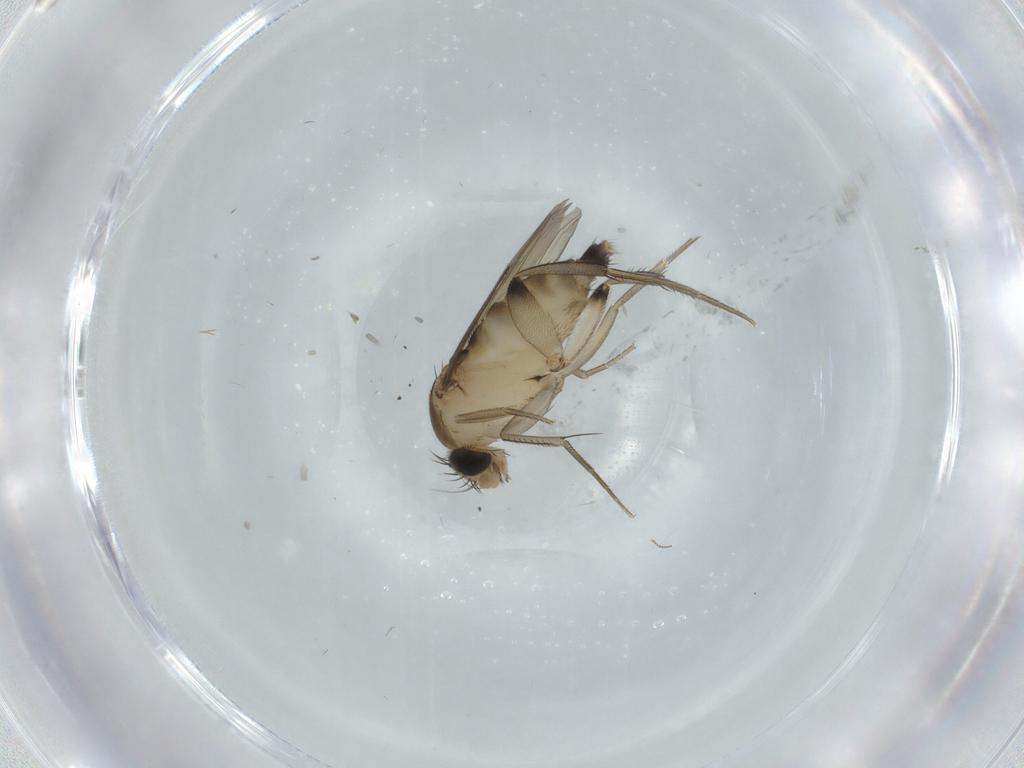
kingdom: Animalia
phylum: Arthropoda
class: Insecta
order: Diptera
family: Phoridae
